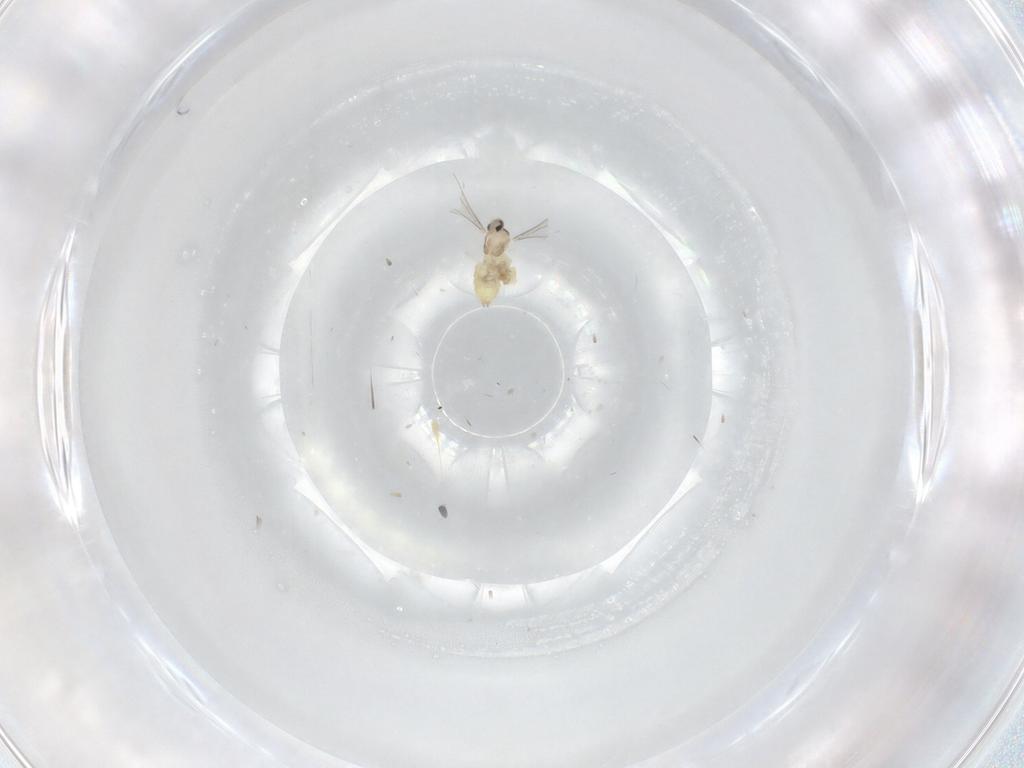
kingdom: Animalia
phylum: Arthropoda
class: Insecta
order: Diptera
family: Cecidomyiidae
